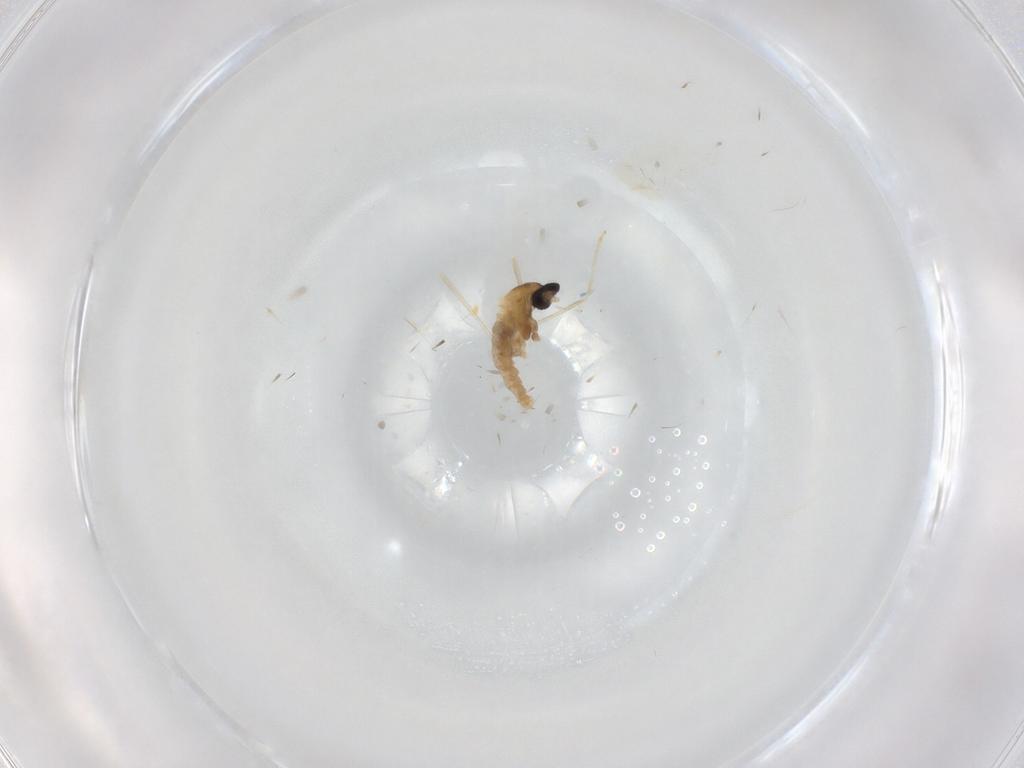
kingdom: Animalia
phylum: Arthropoda
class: Insecta
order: Diptera
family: Cecidomyiidae
